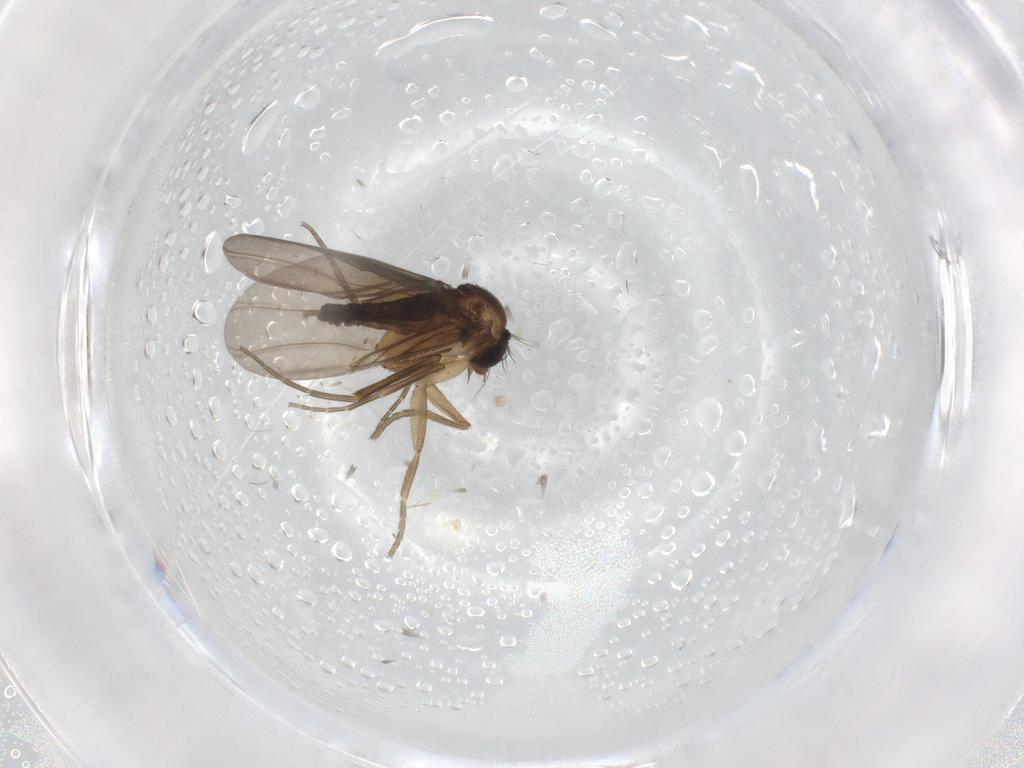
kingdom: Animalia
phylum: Arthropoda
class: Insecta
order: Diptera
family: Phoridae
